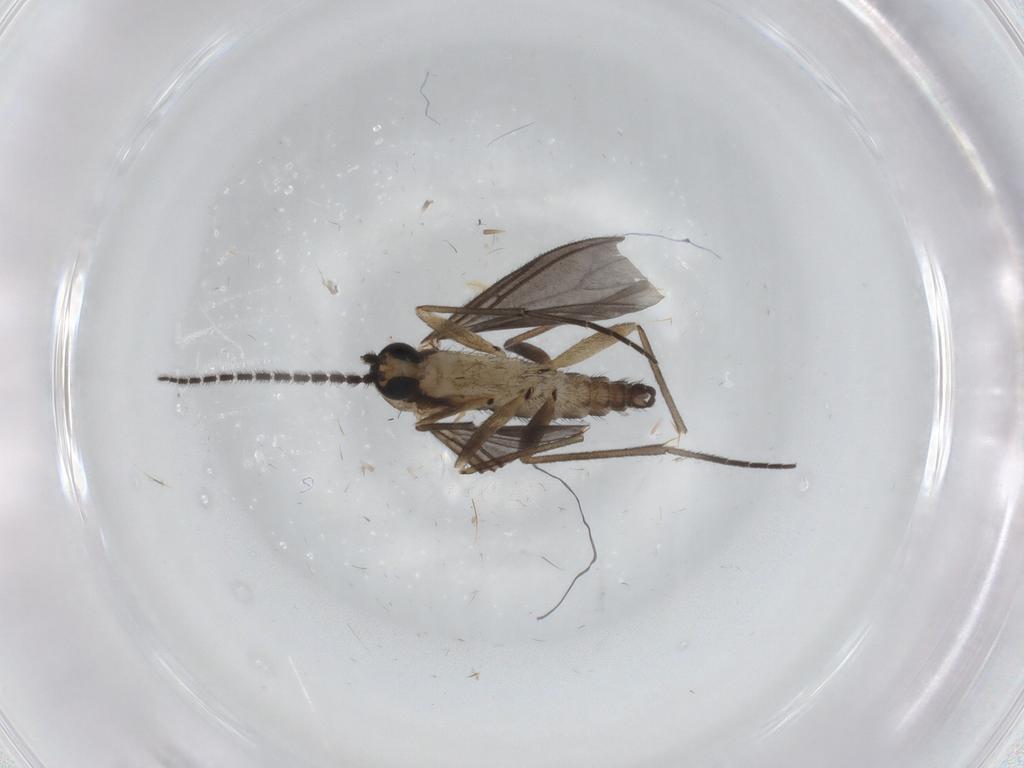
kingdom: Animalia
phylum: Arthropoda
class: Insecta
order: Diptera
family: Sciaridae
